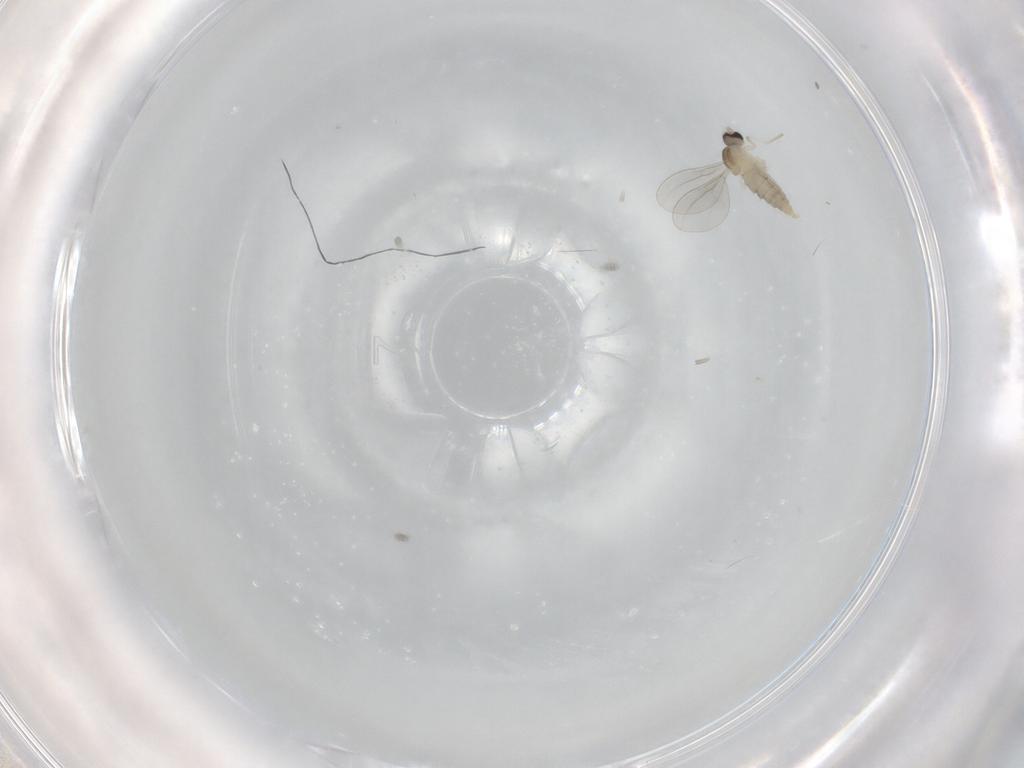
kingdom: Animalia
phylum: Arthropoda
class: Insecta
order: Diptera
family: Cecidomyiidae
